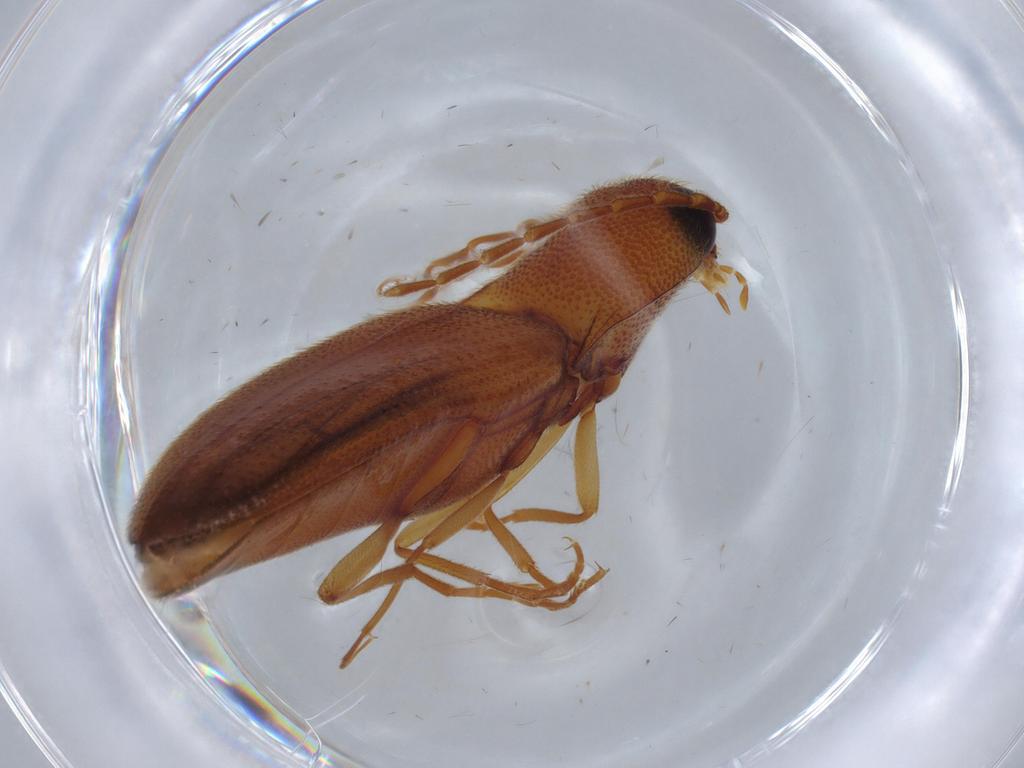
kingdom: Animalia
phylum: Arthropoda
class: Insecta
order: Coleoptera
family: Elateridae
